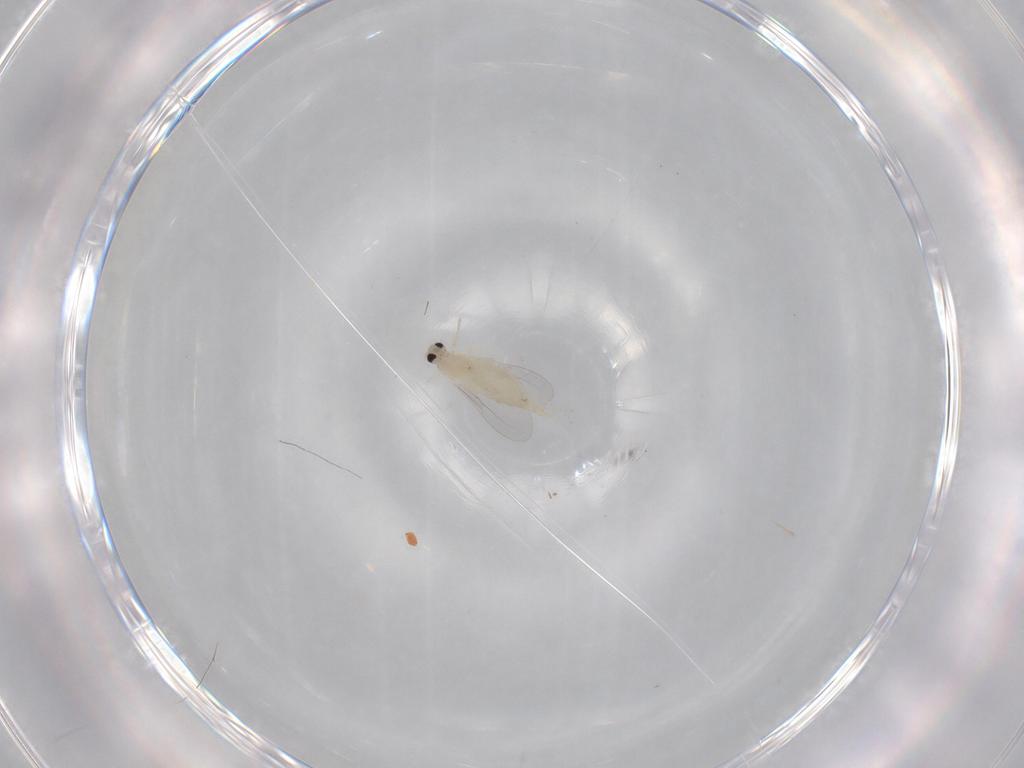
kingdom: Animalia
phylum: Arthropoda
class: Insecta
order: Diptera
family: Cecidomyiidae
